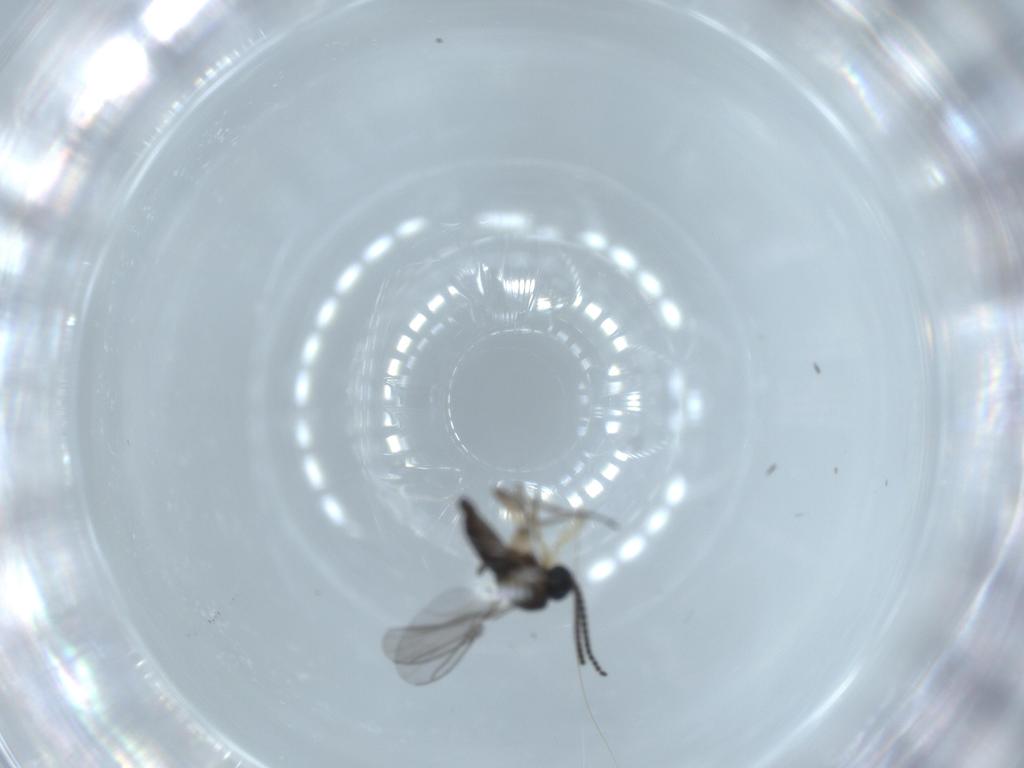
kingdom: Animalia
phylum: Arthropoda
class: Insecta
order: Diptera
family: Sciaridae
